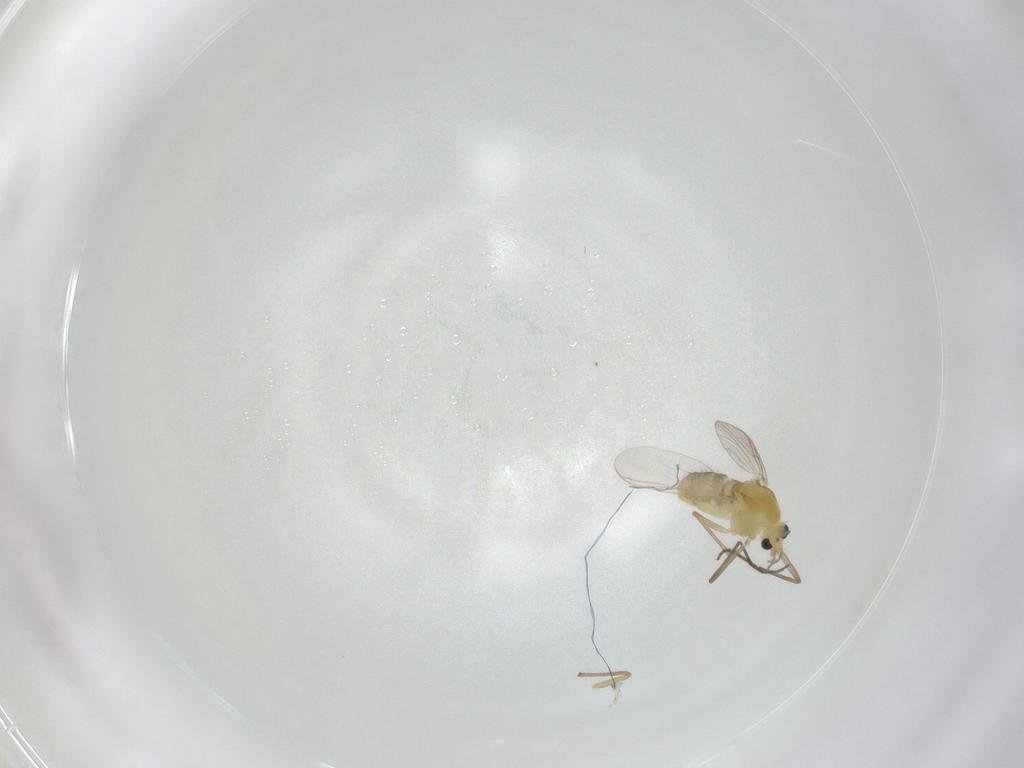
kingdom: Animalia
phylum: Arthropoda
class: Insecta
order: Diptera
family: Chironomidae
